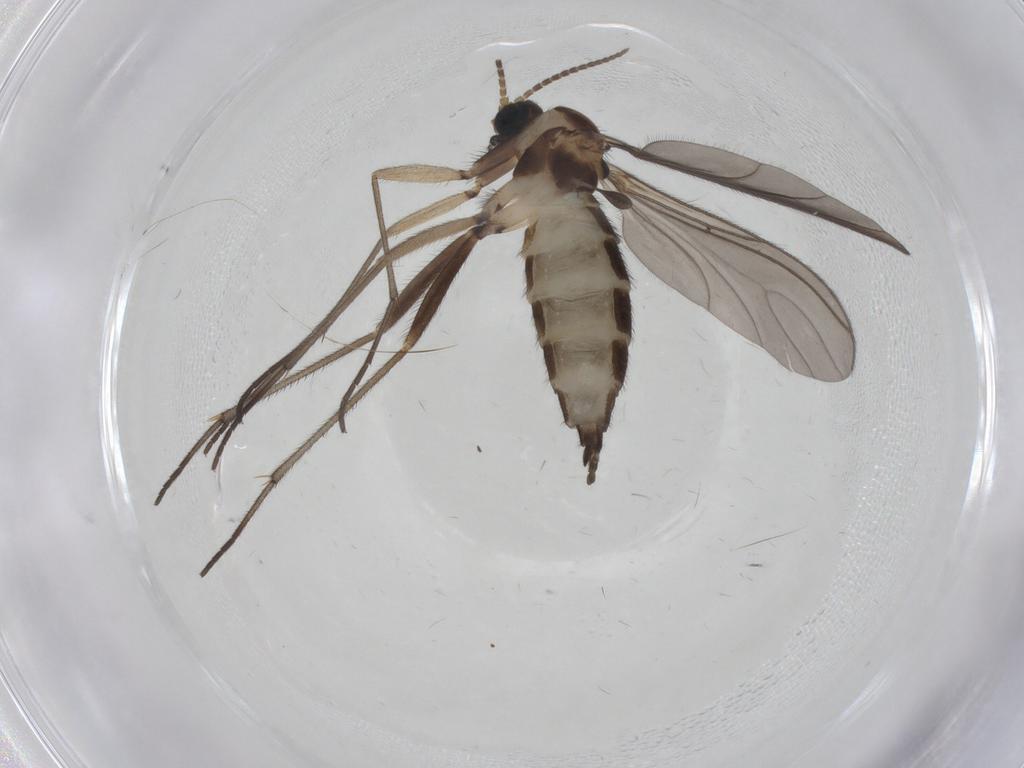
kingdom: Animalia
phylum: Arthropoda
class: Insecta
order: Diptera
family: Sciaridae
